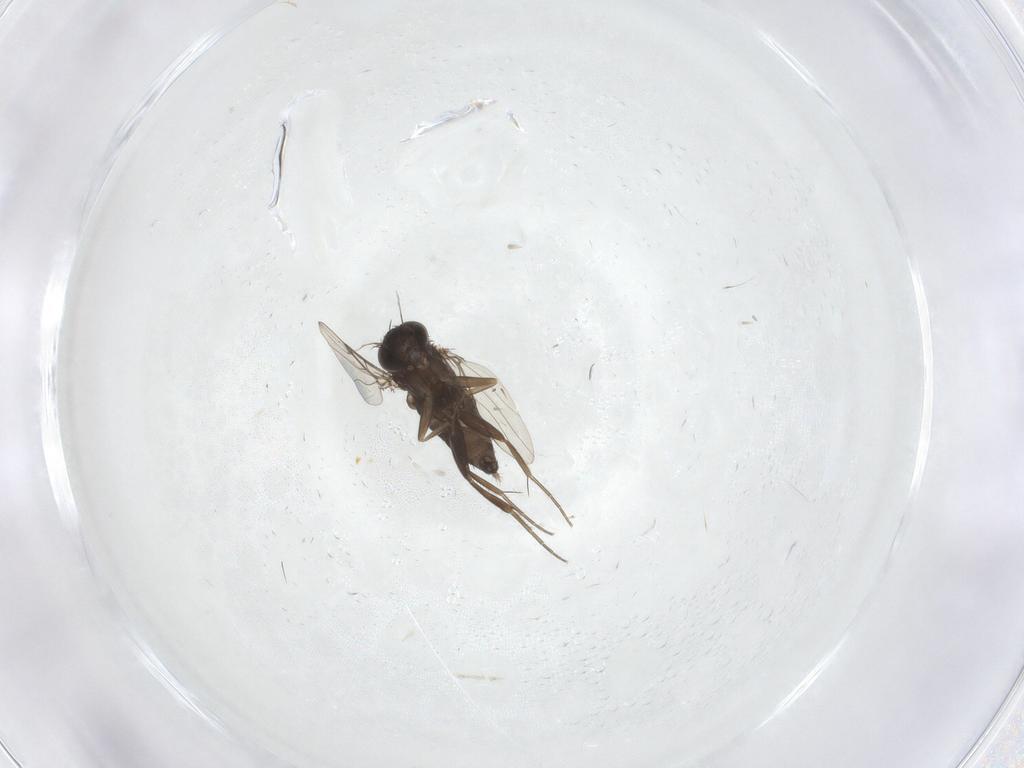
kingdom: Animalia
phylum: Arthropoda
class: Insecta
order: Diptera
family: Phoridae
